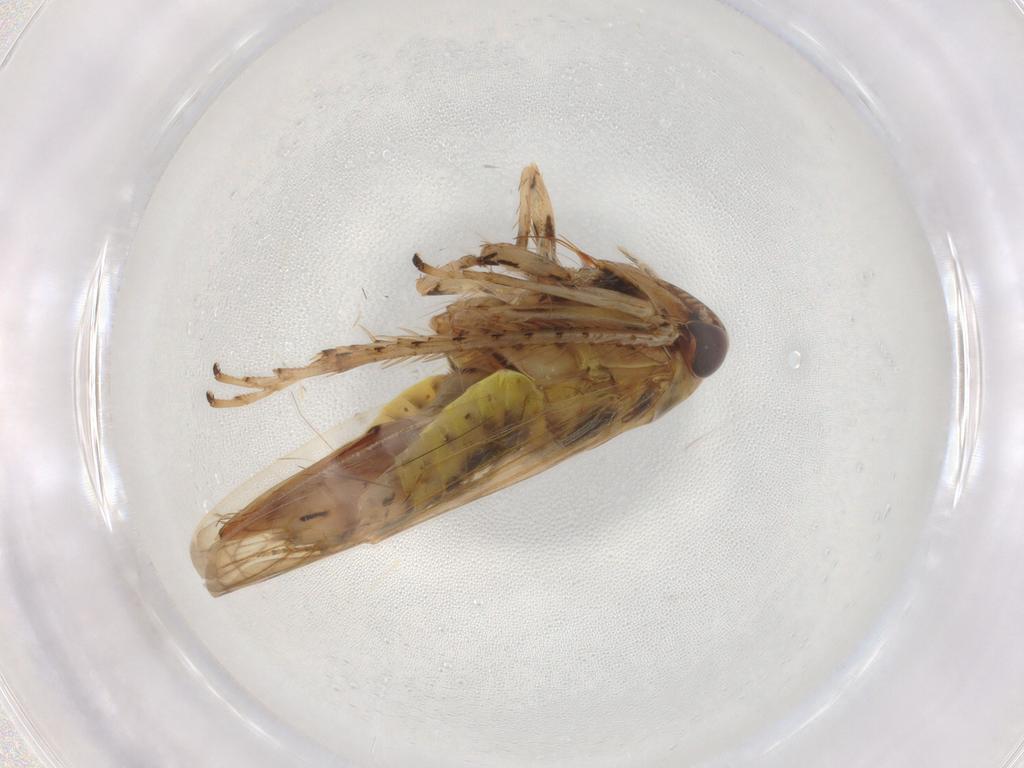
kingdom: Animalia
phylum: Arthropoda
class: Insecta
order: Hemiptera
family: Cicadellidae
